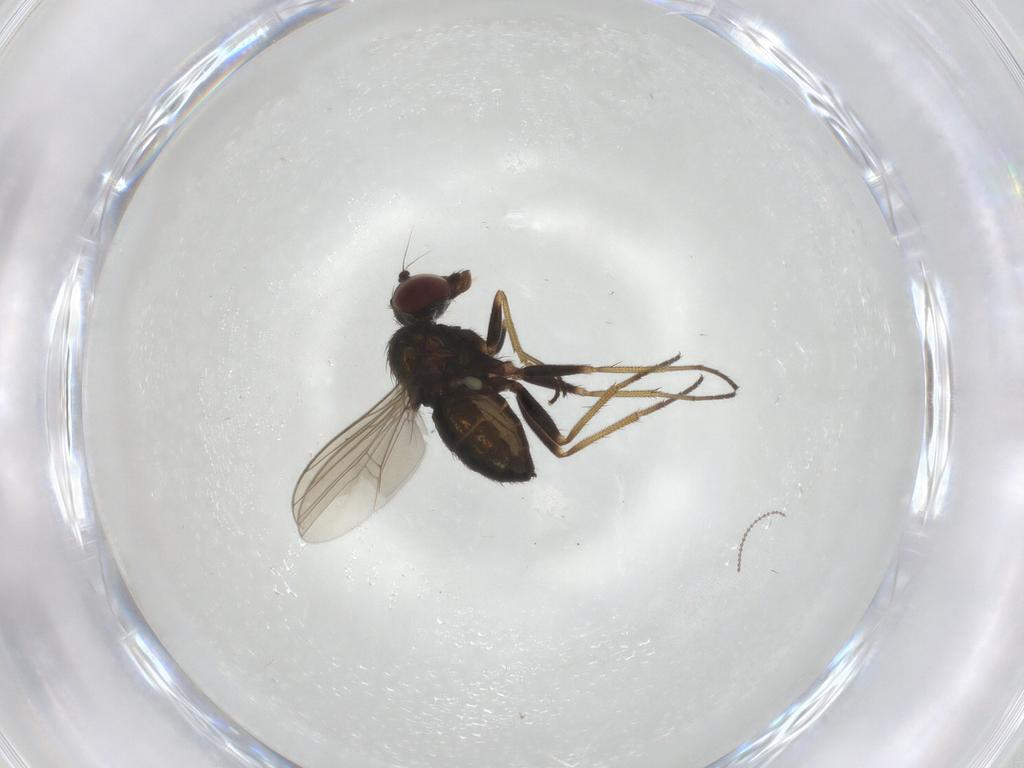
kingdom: Animalia
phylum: Arthropoda
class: Insecta
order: Diptera
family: Dolichopodidae
